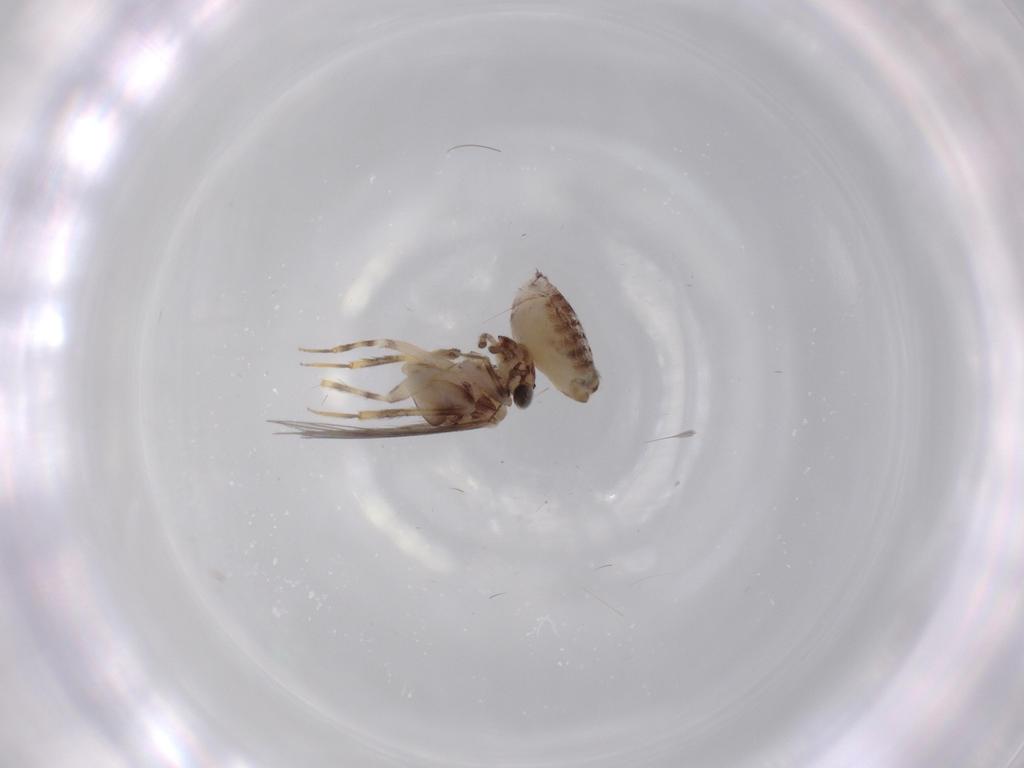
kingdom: Animalia
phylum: Arthropoda
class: Insecta
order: Psocodea
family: Lepidopsocidae
